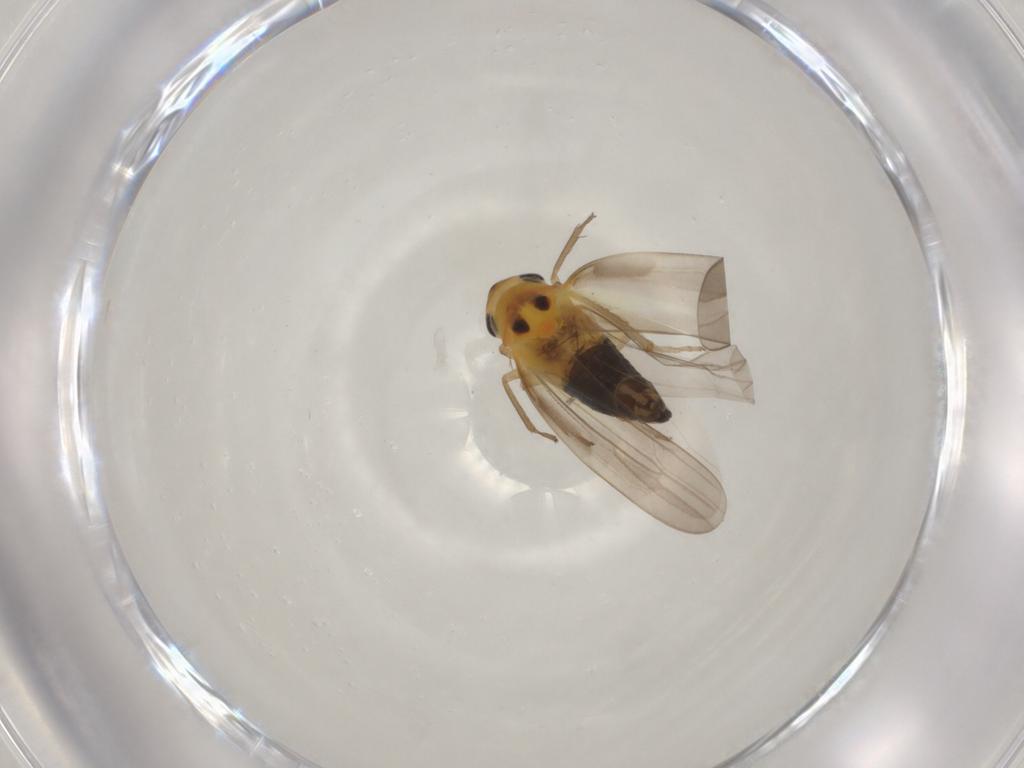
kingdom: Animalia
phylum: Arthropoda
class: Insecta
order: Hemiptera
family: Cicadellidae
